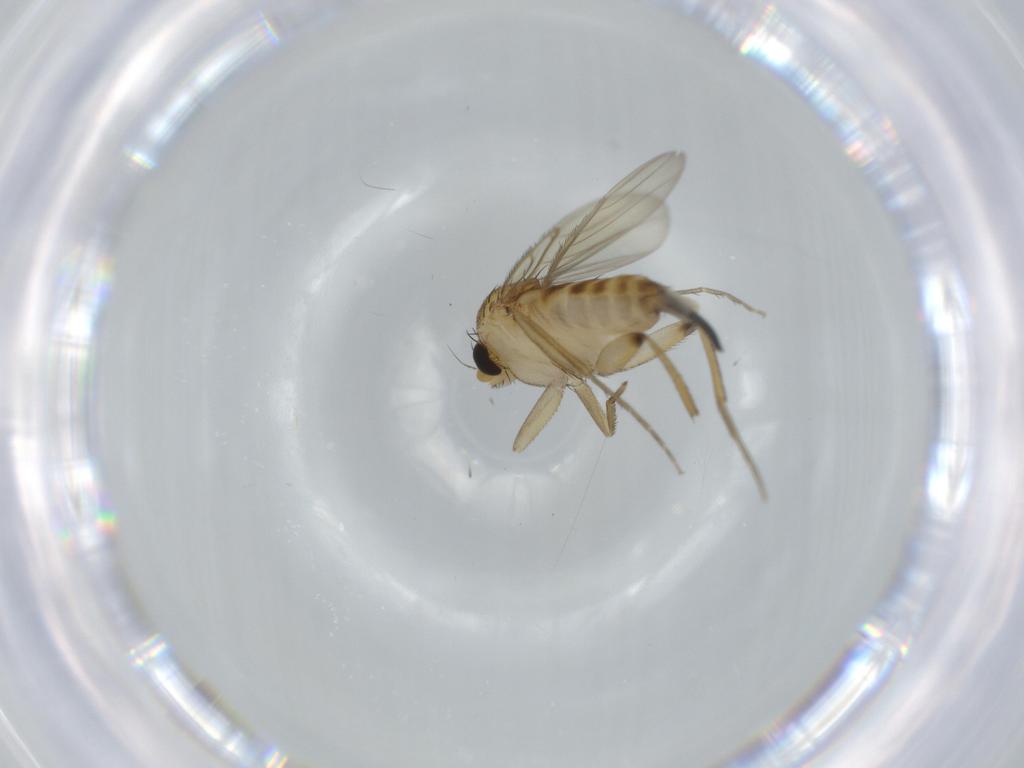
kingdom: Animalia
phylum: Arthropoda
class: Insecta
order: Diptera
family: Phoridae
